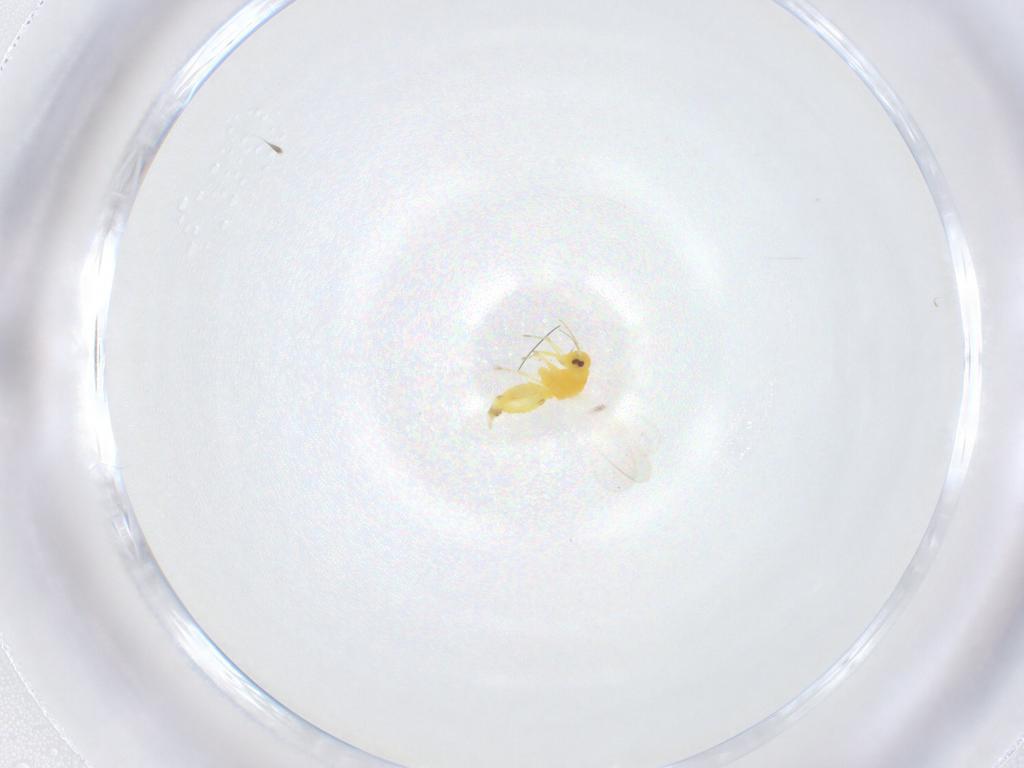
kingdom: Animalia
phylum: Arthropoda
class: Insecta
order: Hemiptera
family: Aleyrodidae
